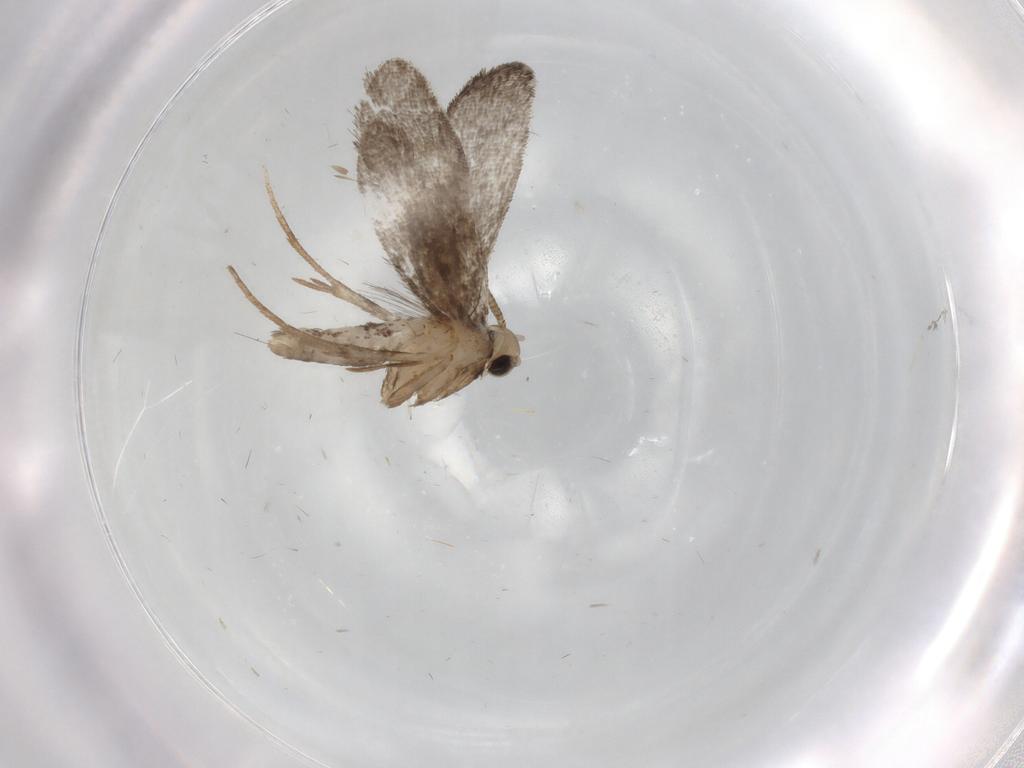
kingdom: Animalia
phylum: Arthropoda
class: Insecta
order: Lepidoptera
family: Nymphalidae
